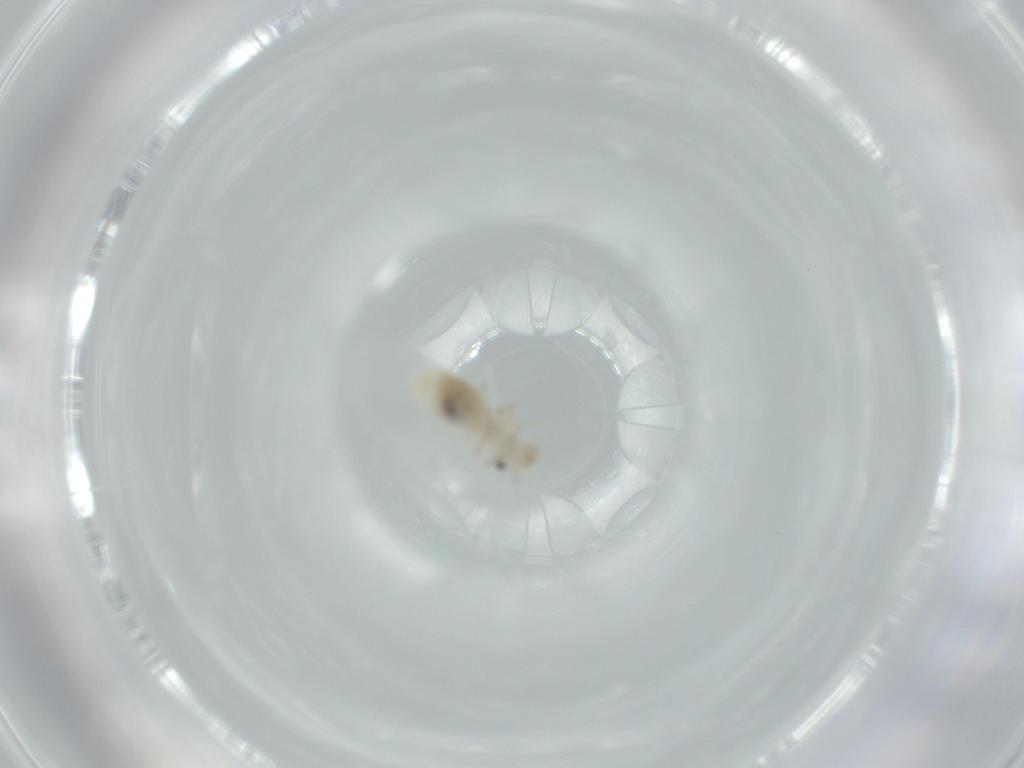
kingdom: Animalia
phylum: Arthropoda
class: Insecta
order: Psocodea
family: Caeciliusidae
